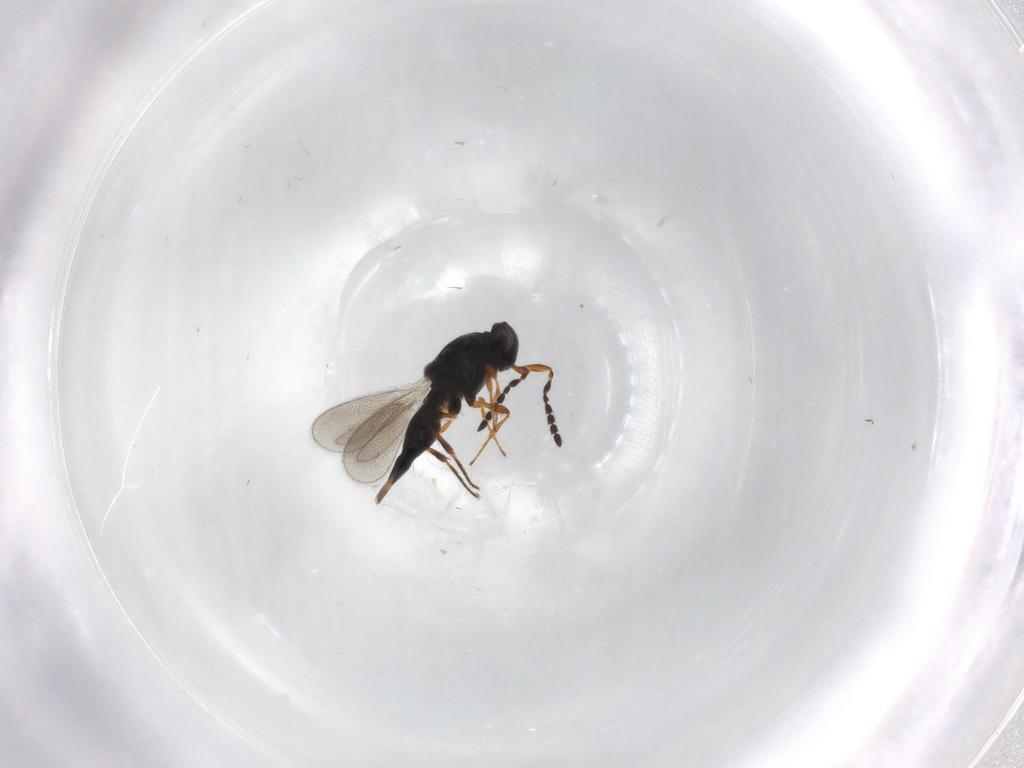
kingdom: Animalia
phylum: Arthropoda
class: Insecta
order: Hymenoptera
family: Platygastridae
